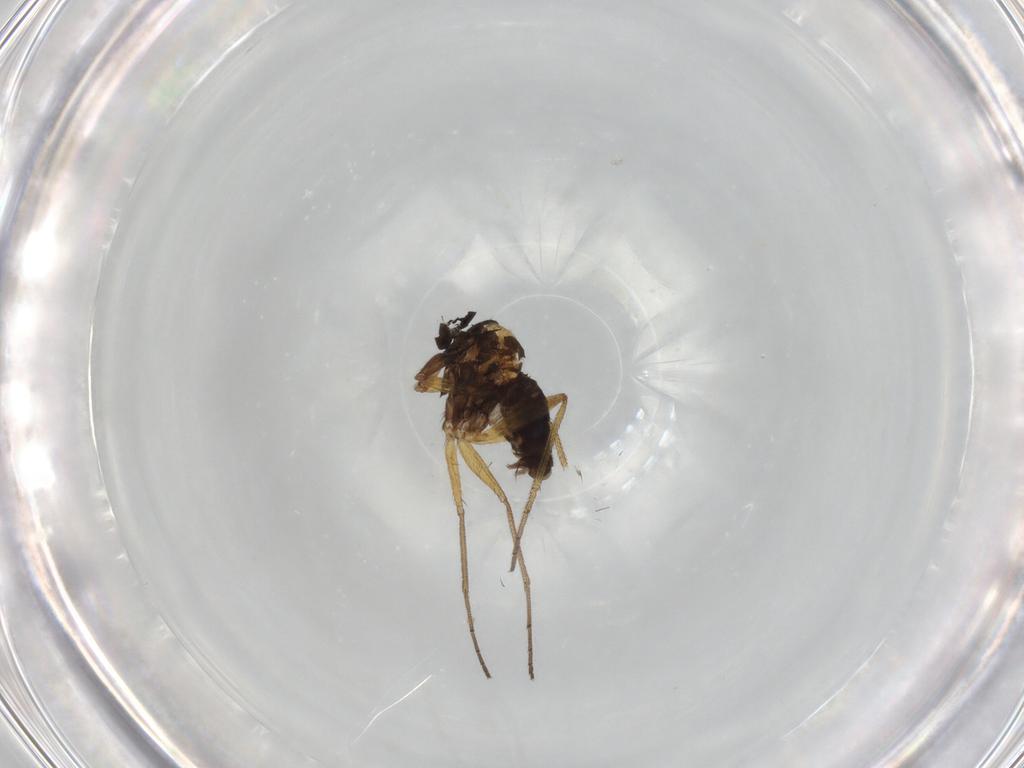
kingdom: Animalia
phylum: Arthropoda
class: Insecta
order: Diptera
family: Dolichopodidae
